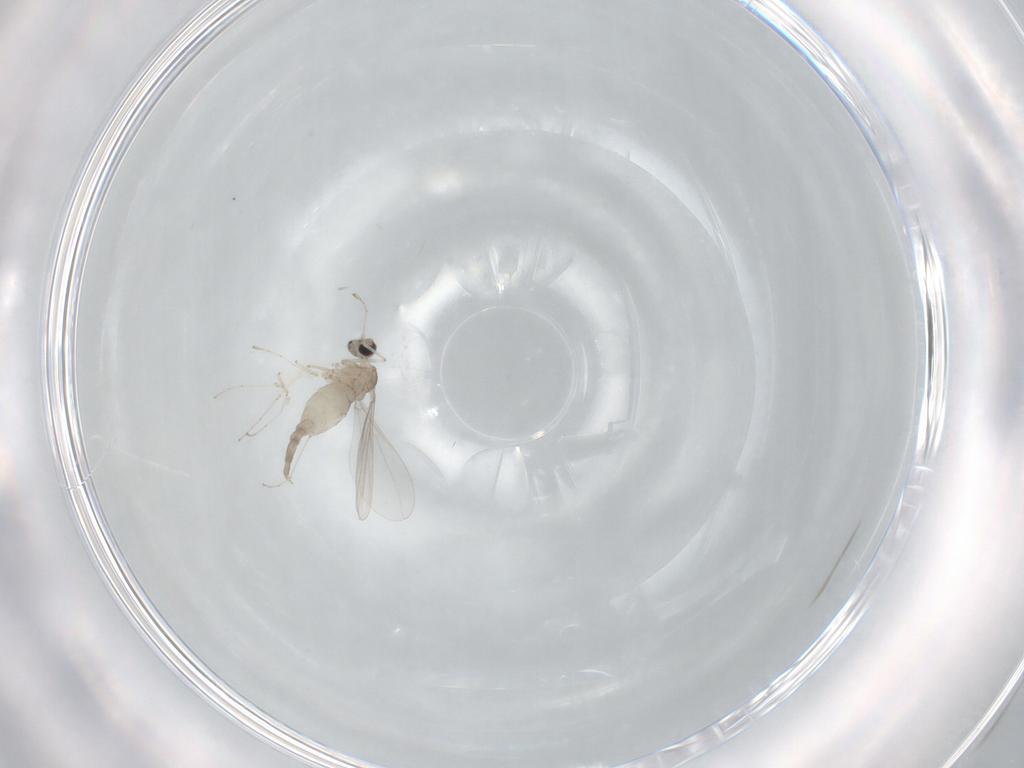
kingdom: Animalia
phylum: Arthropoda
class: Insecta
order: Diptera
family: Cecidomyiidae
